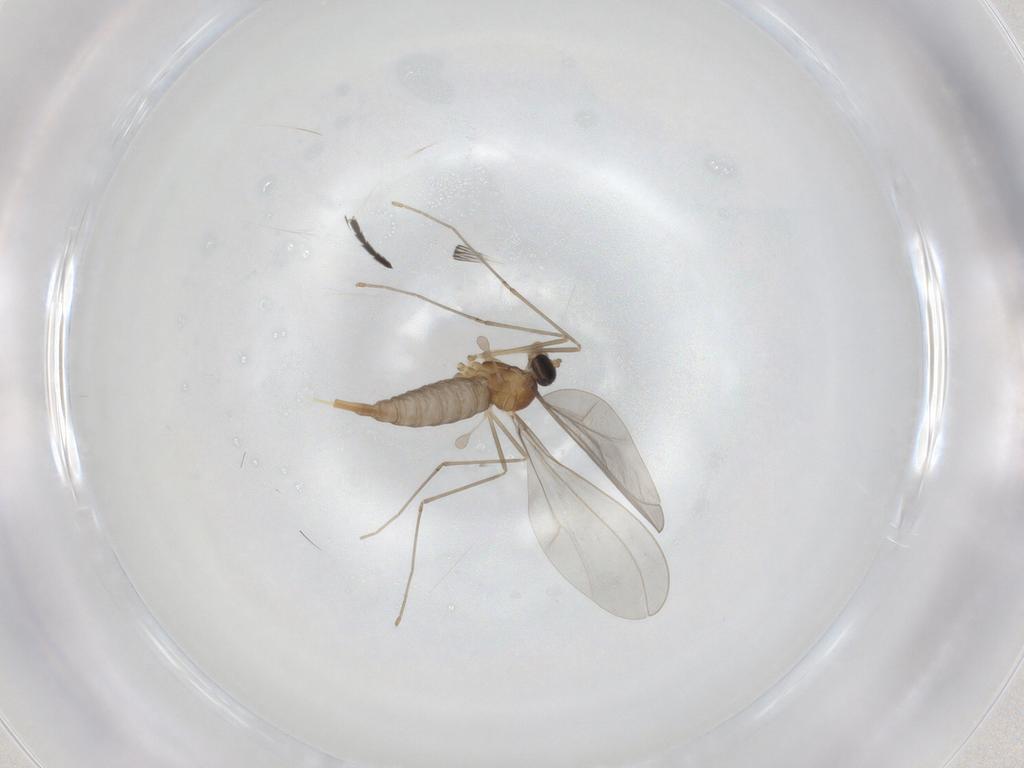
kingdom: Animalia
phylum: Arthropoda
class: Insecta
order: Diptera
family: Cecidomyiidae
